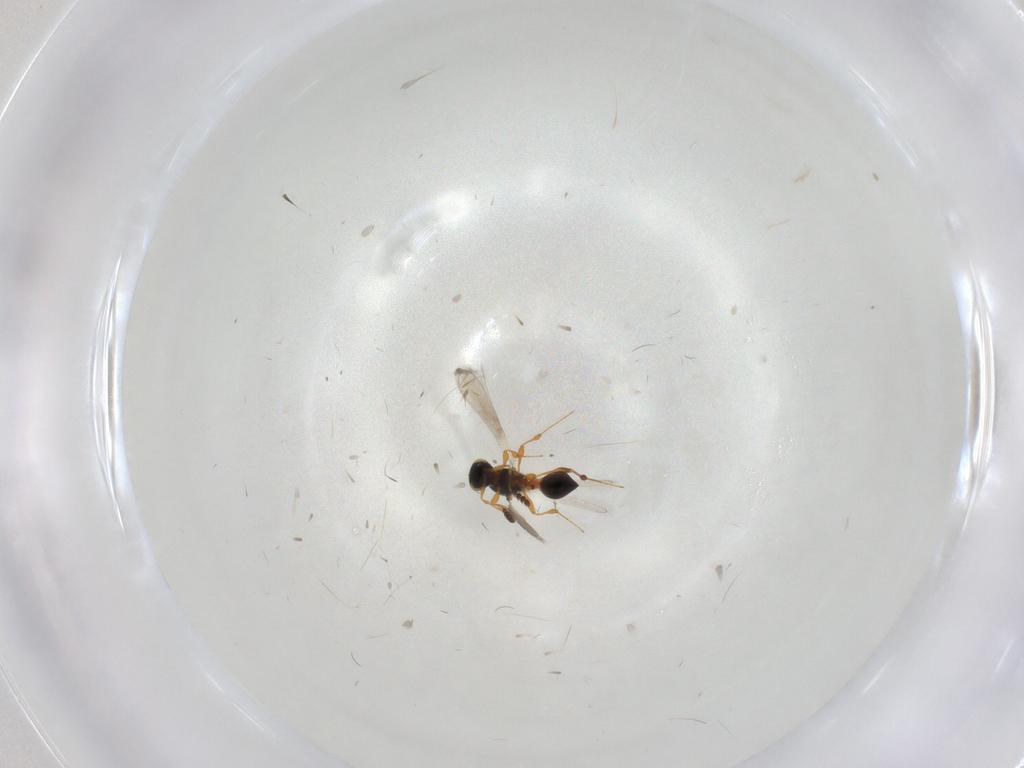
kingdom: Animalia
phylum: Arthropoda
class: Insecta
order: Hymenoptera
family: Platygastridae
